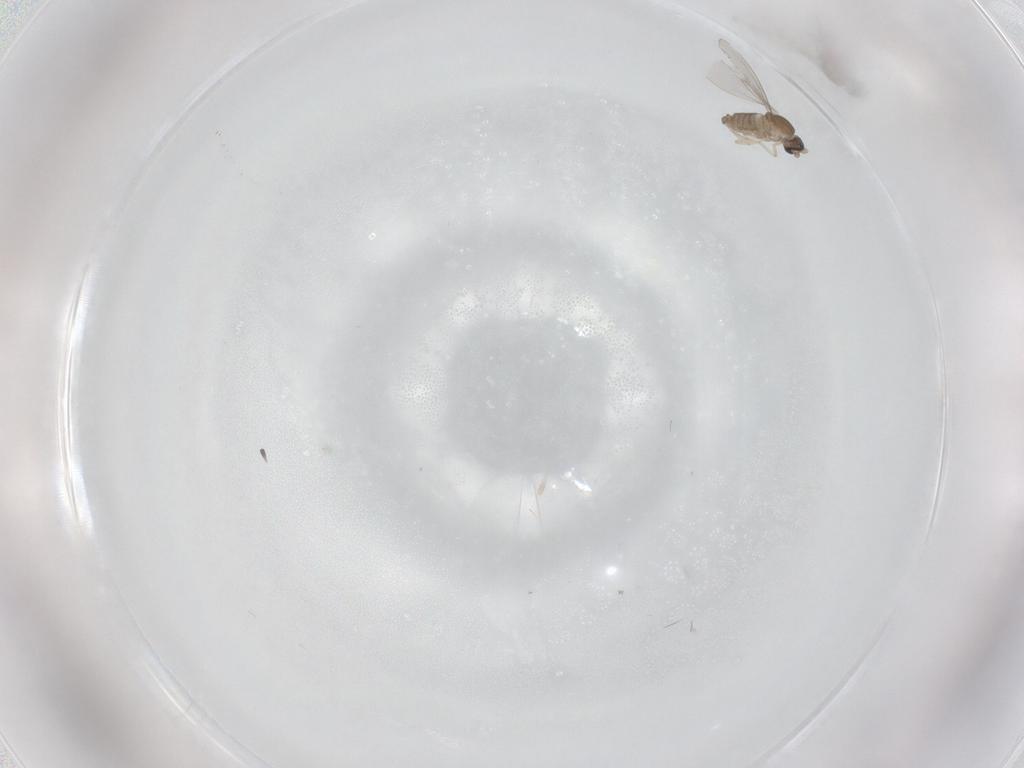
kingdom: Animalia
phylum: Arthropoda
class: Insecta
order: Diptera
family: Cecidomyiidae
